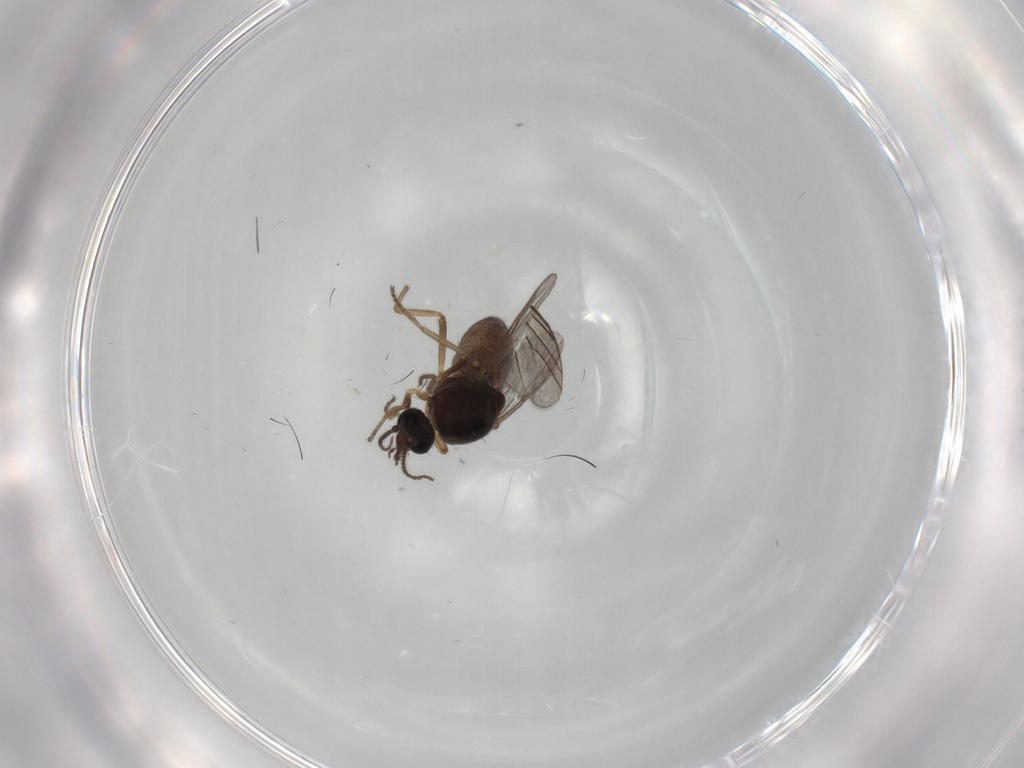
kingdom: Animalia
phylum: Arthropoda
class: Insecta
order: Diptera
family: Ceratopogonidae
